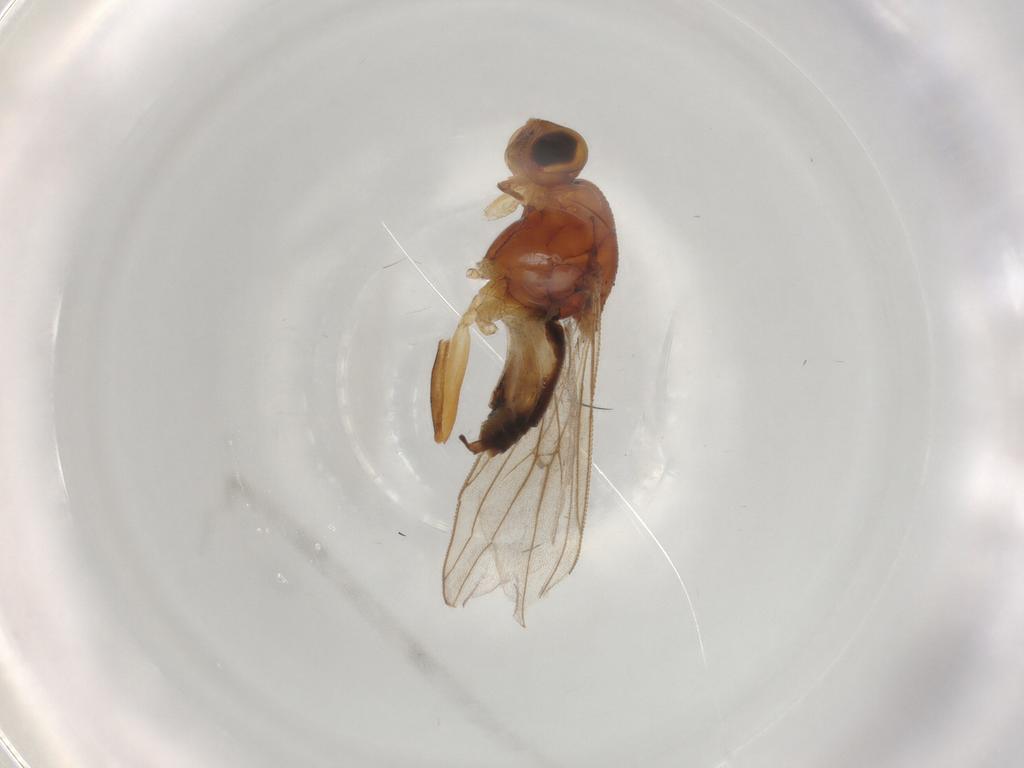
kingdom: Animalia
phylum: Arthropoda
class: Insecta
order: Diptera
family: Chloropidae
